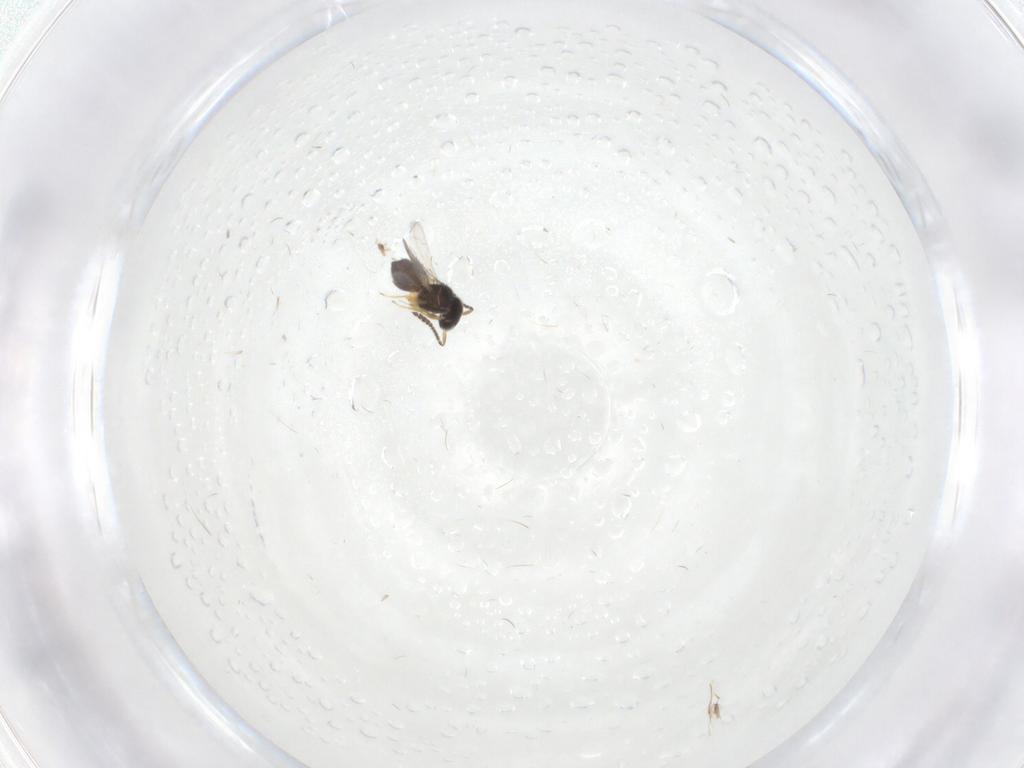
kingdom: Animalia
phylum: Arthropoda
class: Insecta
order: Hymenoptera
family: Scelionidae
